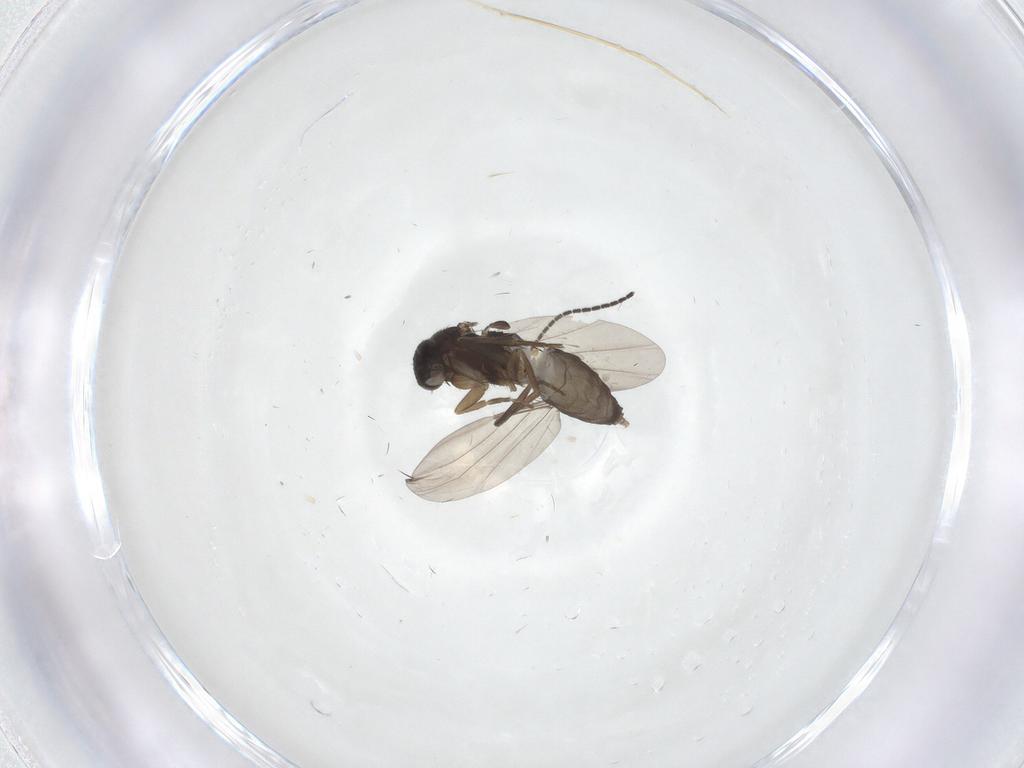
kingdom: Animalia
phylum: Arthropoda
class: Insecta
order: Diptera
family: Phoridae
